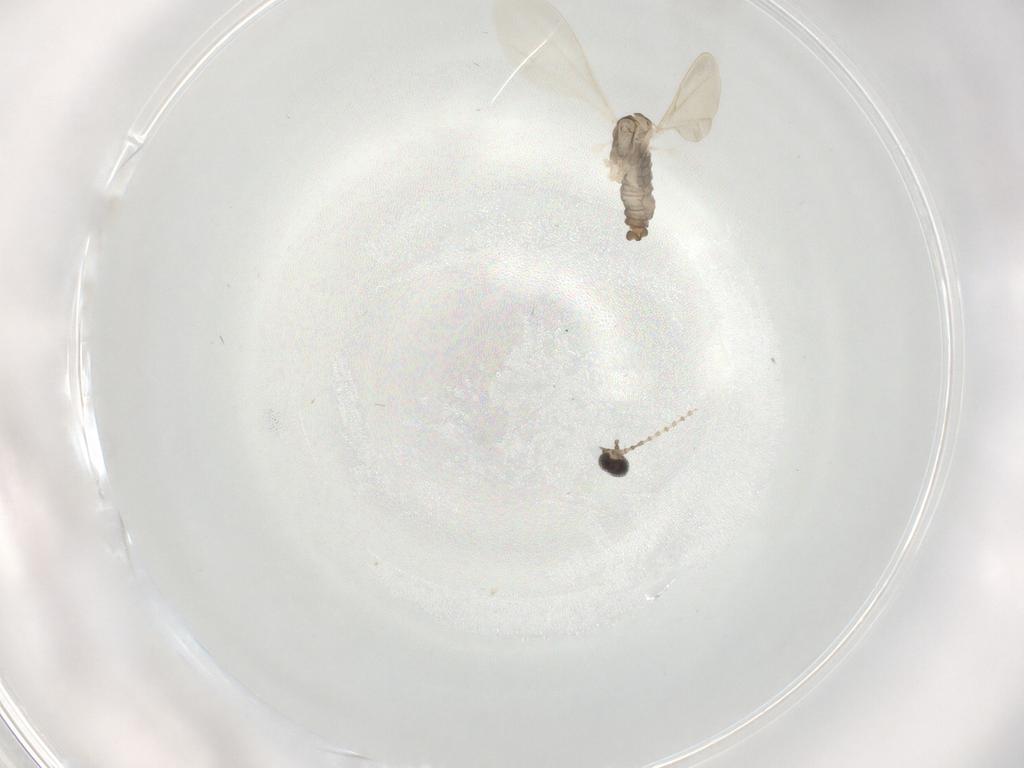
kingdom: Animalia
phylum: Arthropoda
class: Insecta
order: Diptera
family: Cecidomyiidae
